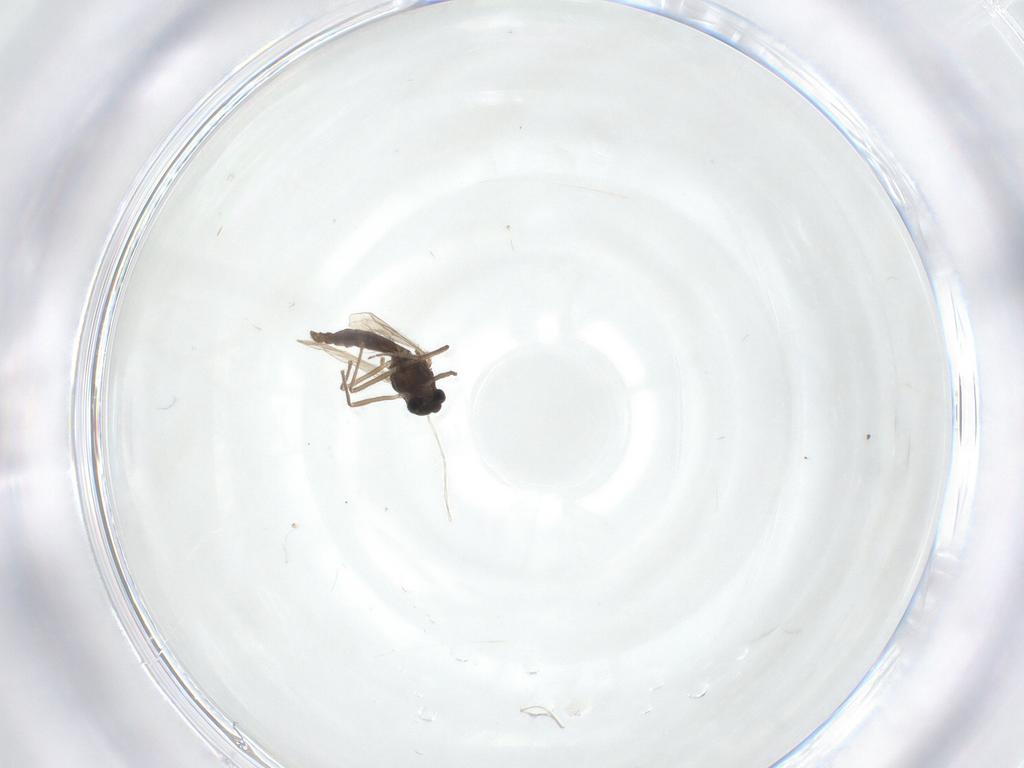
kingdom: Animalia
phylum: Arthropoda
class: Insecta
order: Diptera
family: Chironomidae
